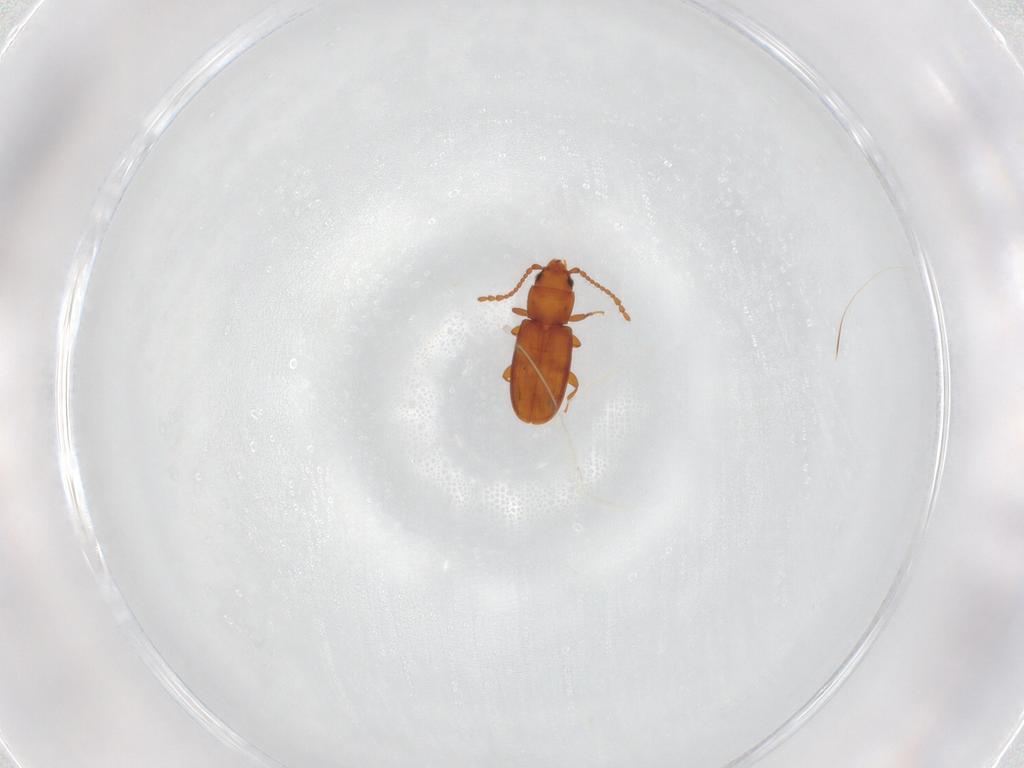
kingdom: Animalia
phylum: Arthropoda
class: Insecta
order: Coleoptera
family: Laemophloeidae
